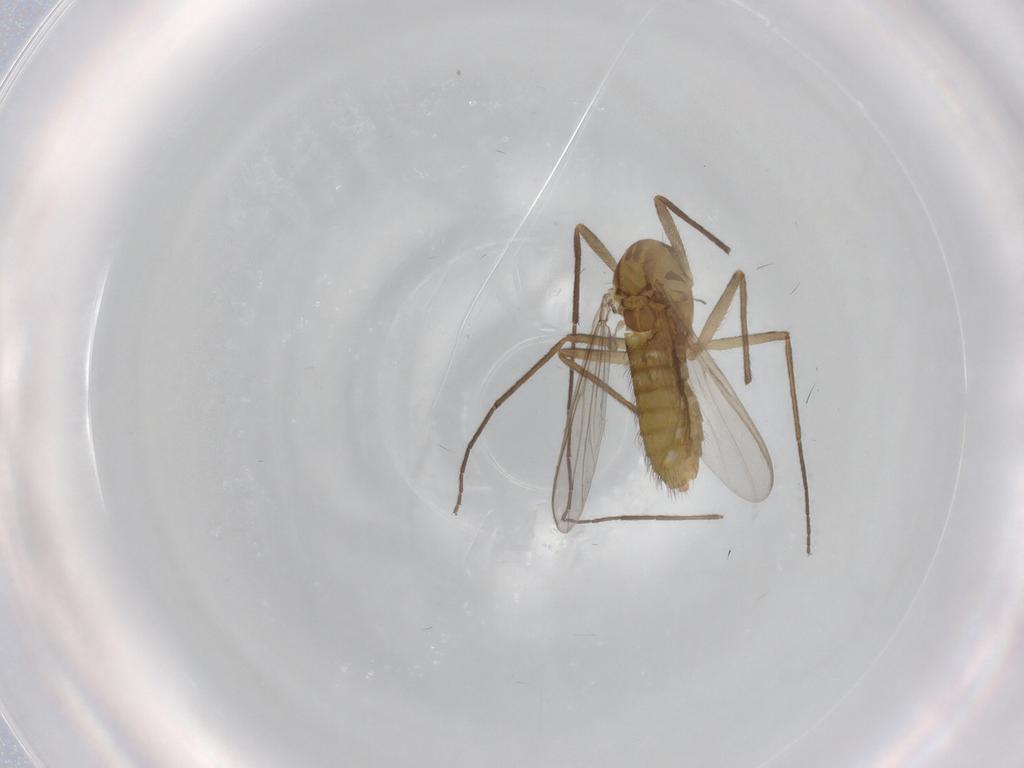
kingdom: Animalia
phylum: Arthropoda
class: Insecta
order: Diptera
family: Chironomidae
